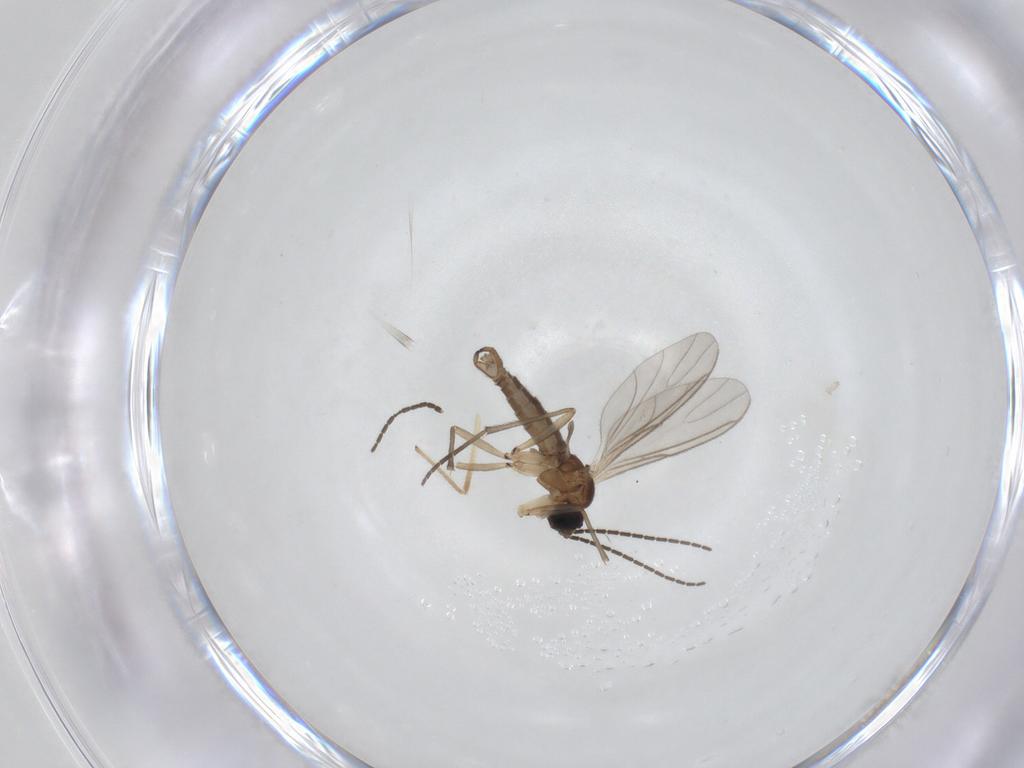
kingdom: Animalia
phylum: Arthropoda
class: Insecta
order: Diptera
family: Sciaridae
